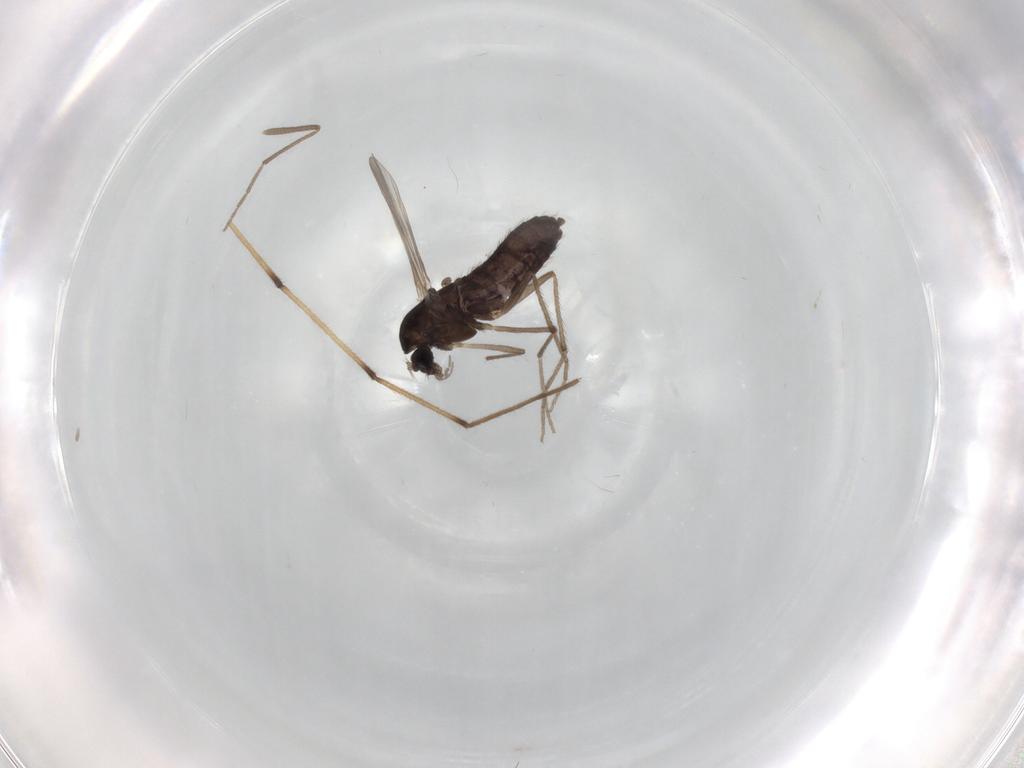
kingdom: Animalia
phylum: Arthropoda
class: Insecta
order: Diptera
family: Chironomidae
